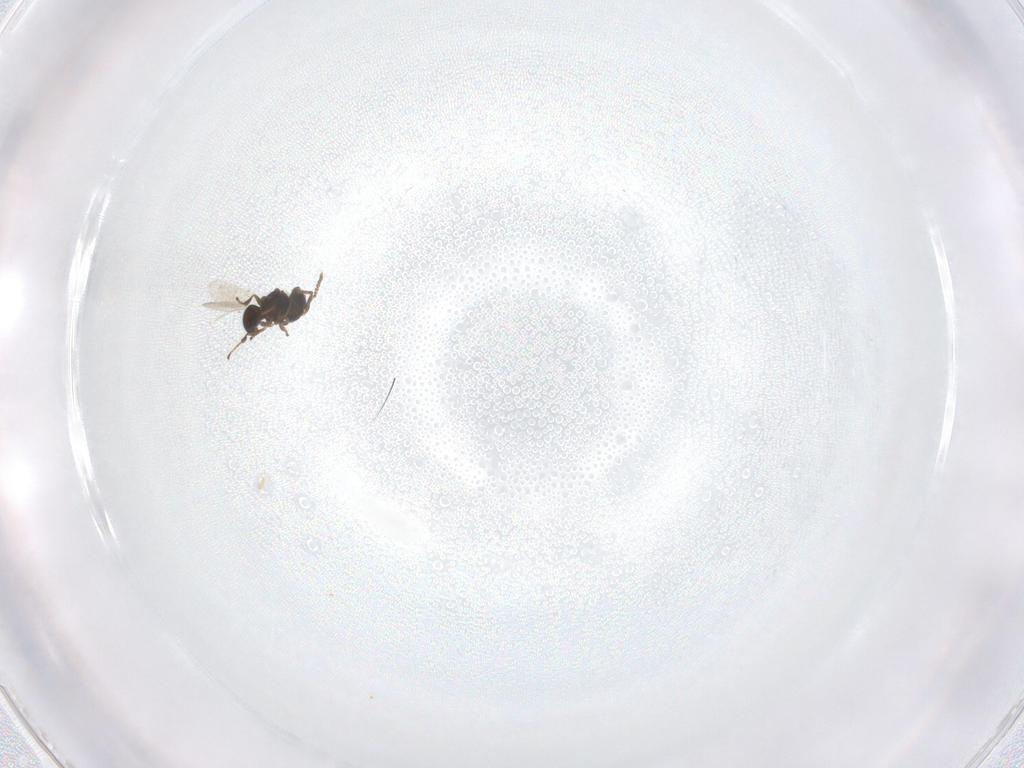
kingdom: Animalia
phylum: Arthropoda
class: Insecta
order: Hymenoptera
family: Platygastridae
